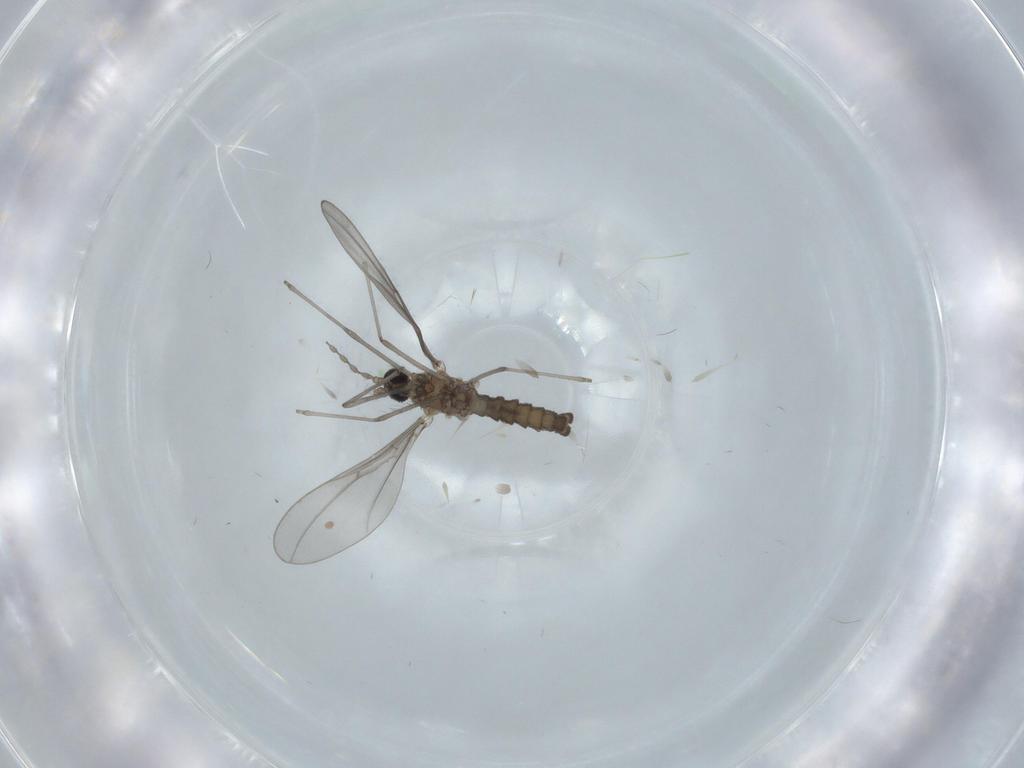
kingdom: Animalia
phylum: Arthropoda
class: Insecta
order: Diptera
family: Cecidomyiidae
